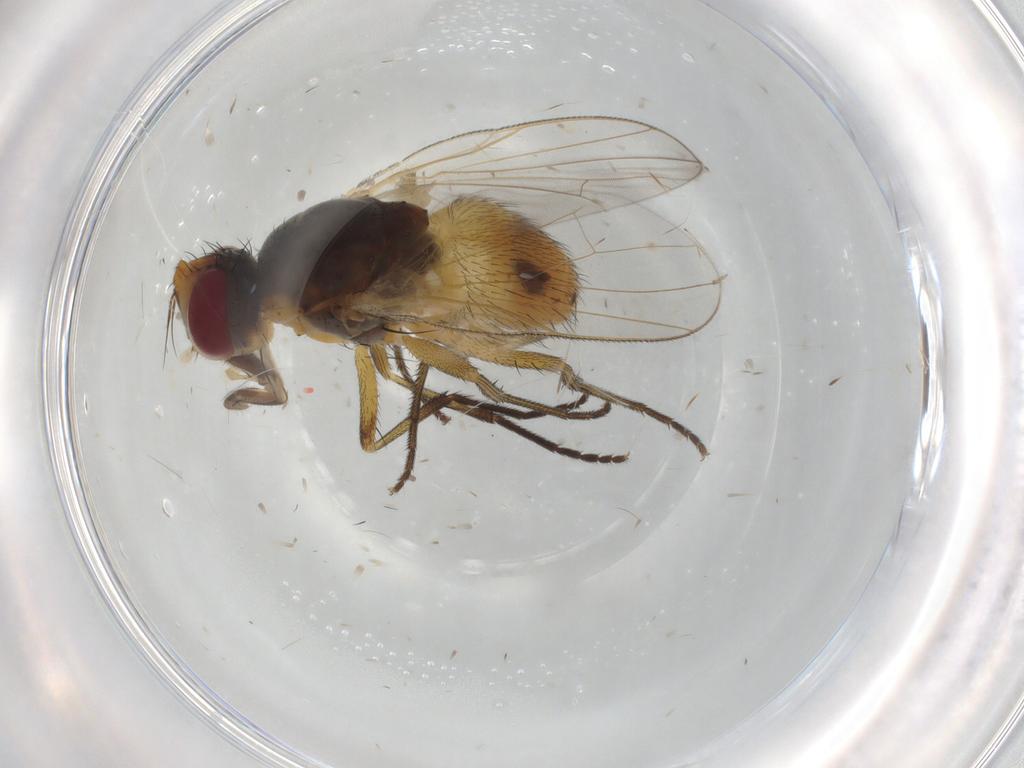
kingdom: Animalia
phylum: Arthropoda
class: Insecta
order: Diptera
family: Muscidae
